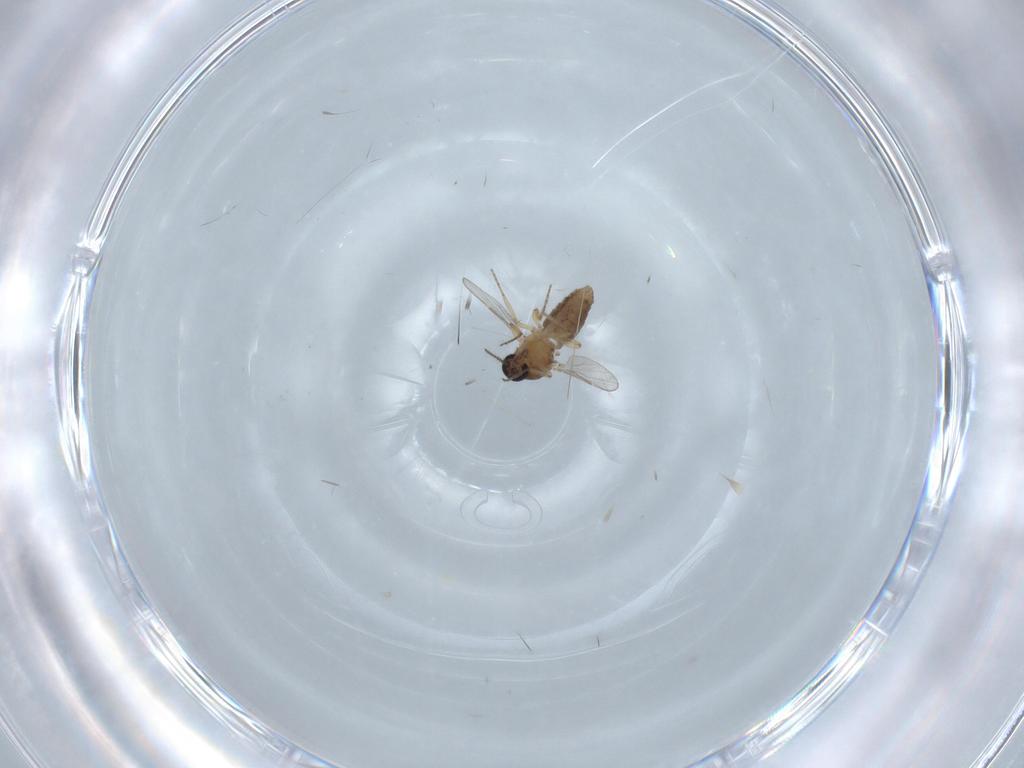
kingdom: Animalia
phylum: Arthropoda
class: Insecta
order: Diptera
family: Ceratopogonidae
